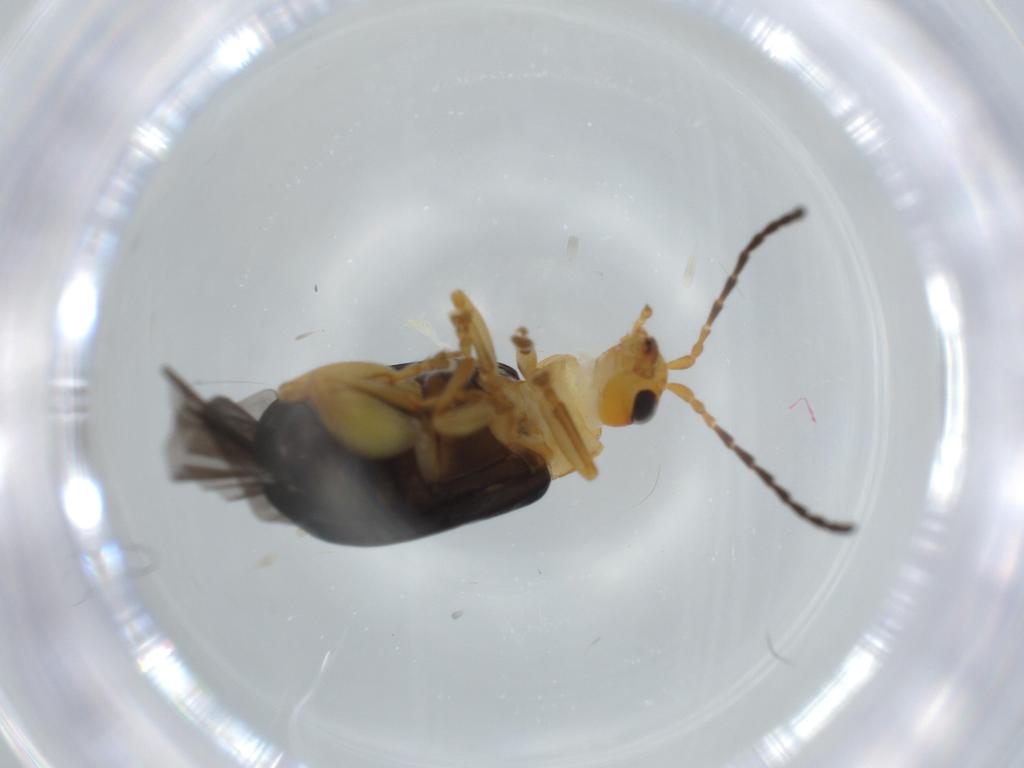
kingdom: Animalia
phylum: Arthropoda
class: Insecta
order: Coleoptera
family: Chrysomelidae
